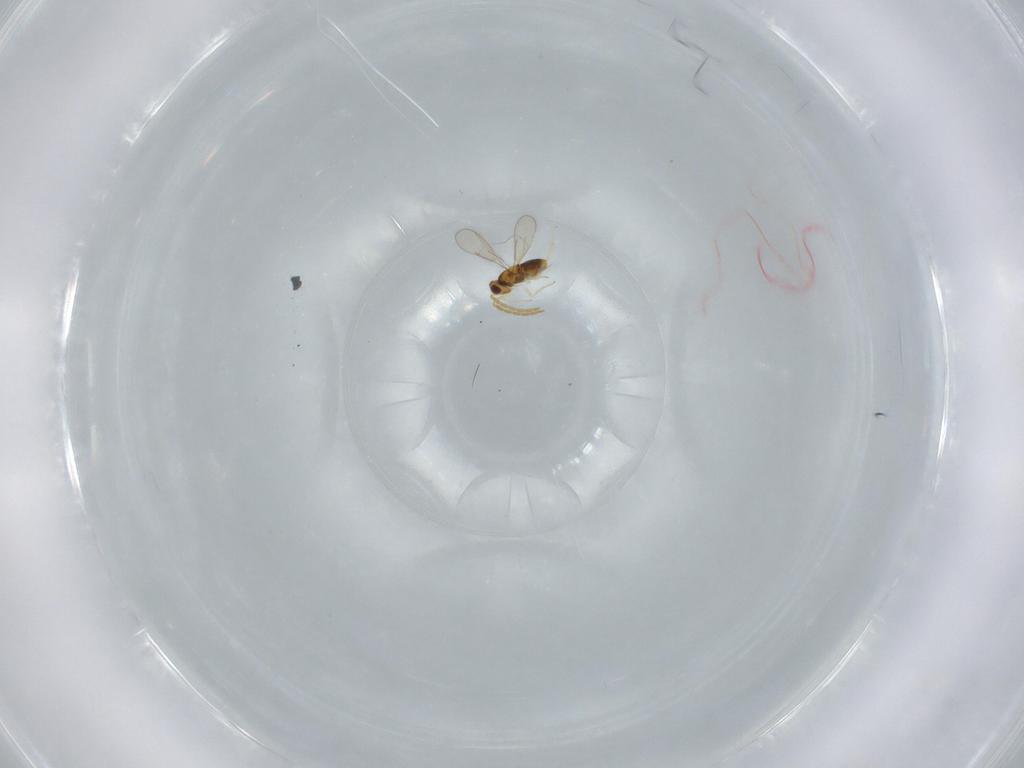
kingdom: Animalia
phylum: Arthropoda
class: Insecta
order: Hymenoptera
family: Aphelinidae
